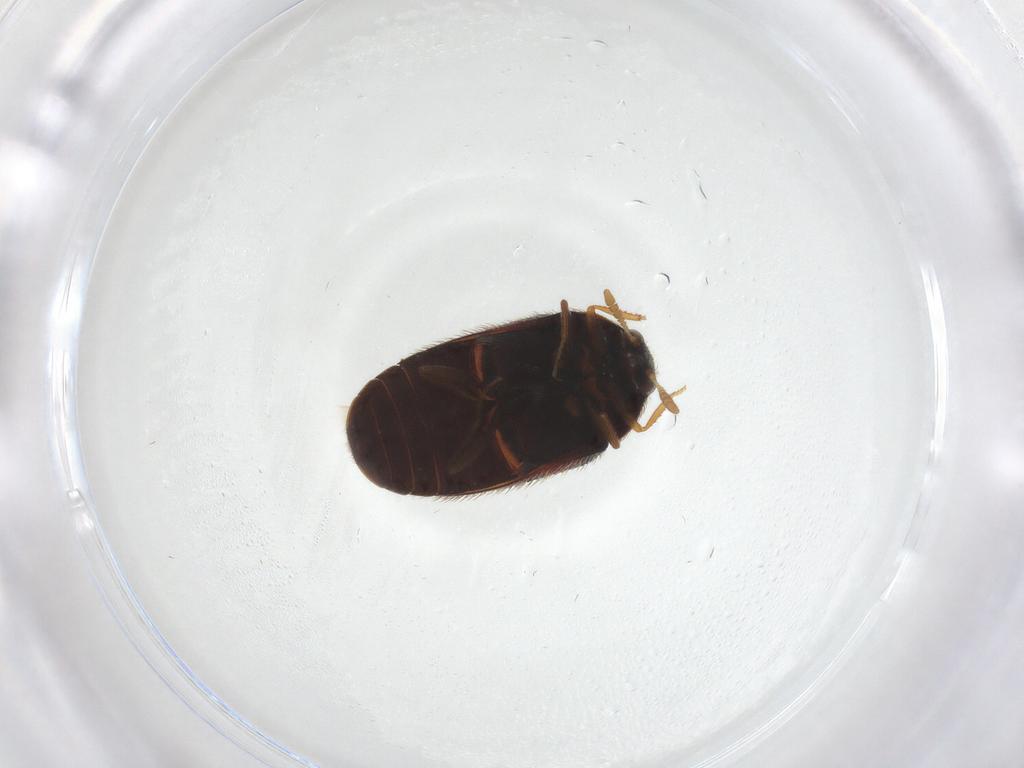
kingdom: Animalia
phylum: Arthropoda
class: Insecta
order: Coleoptera
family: Dermestidae
